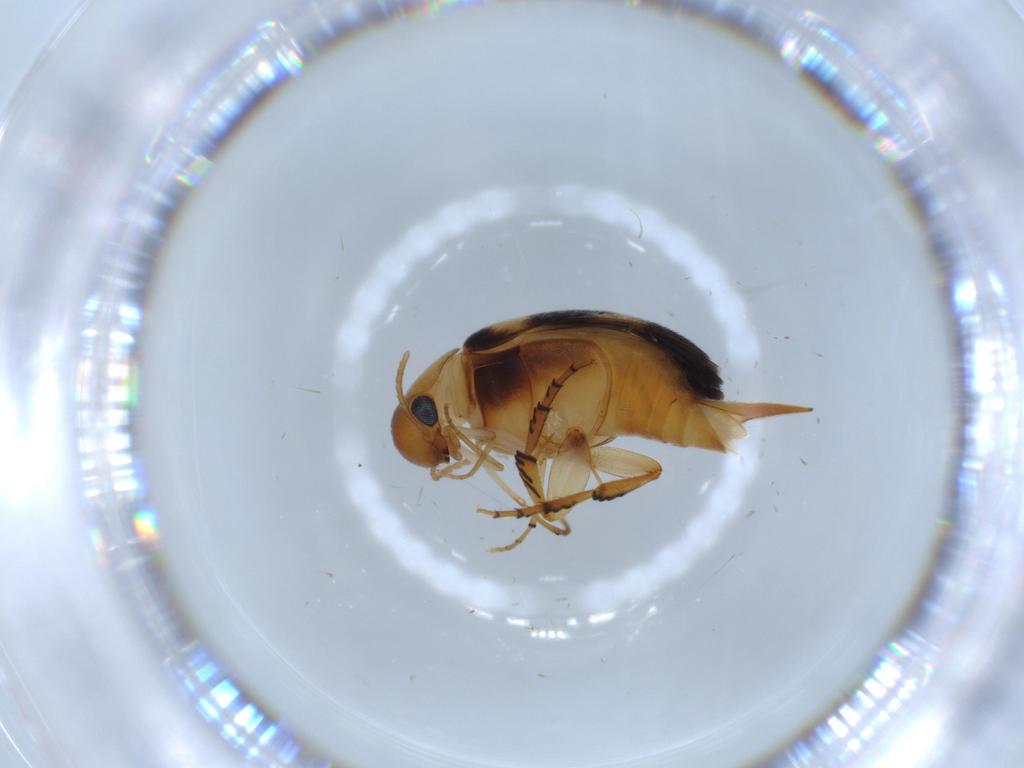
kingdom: Animalia
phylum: Arthropoda
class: Insecta
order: Coleoptera
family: Mordellidae
